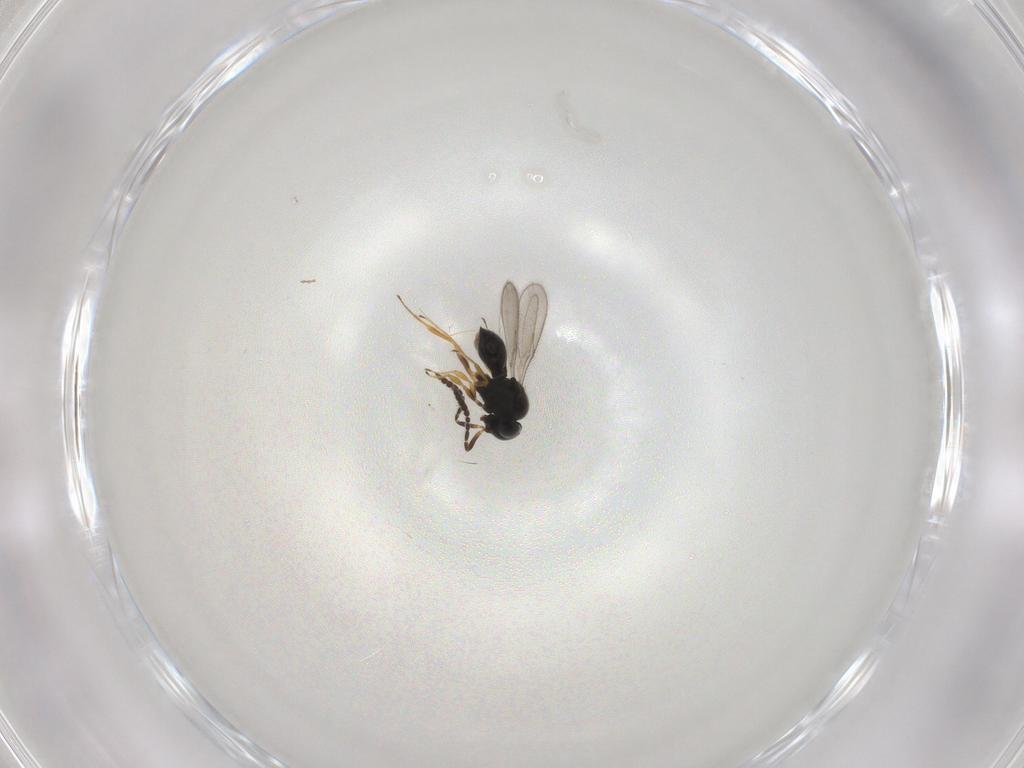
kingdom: Animalia
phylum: Arthropoda
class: Insecta
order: Hymenoptera
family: Scelionidae
